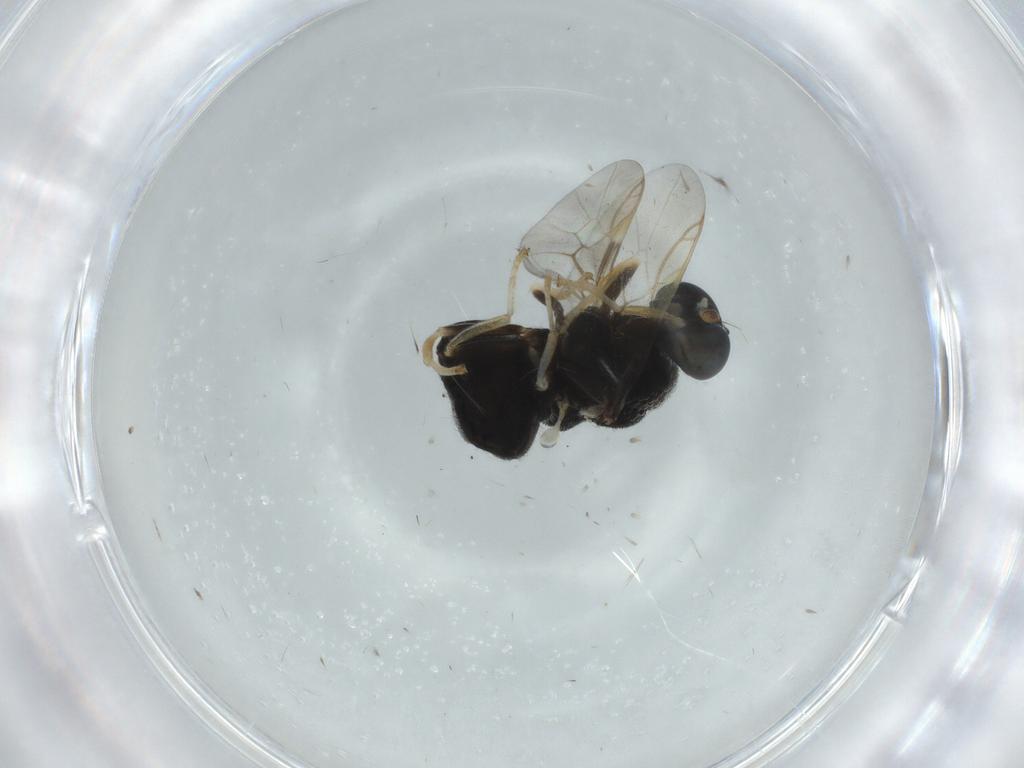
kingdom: Animalia
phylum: Arthropoda
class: Insecta
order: Diptera
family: Stratiomyidae
